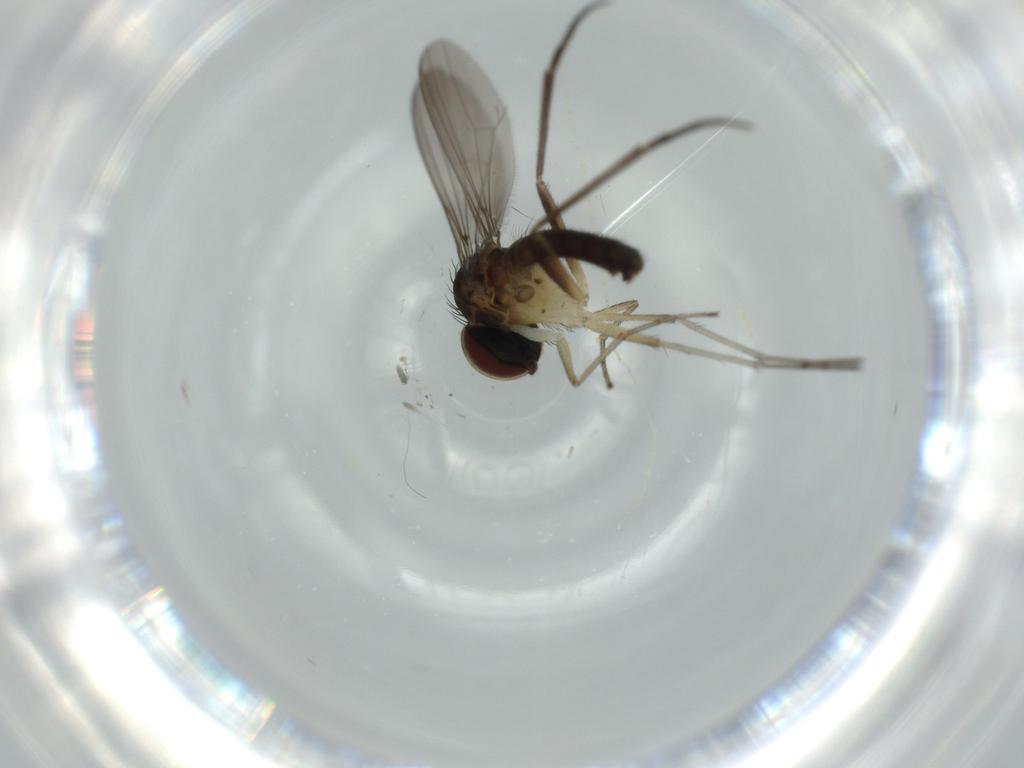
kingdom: Animalia
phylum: Arthropoda
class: Insecta
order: Diptera
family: Dolichopodidae
